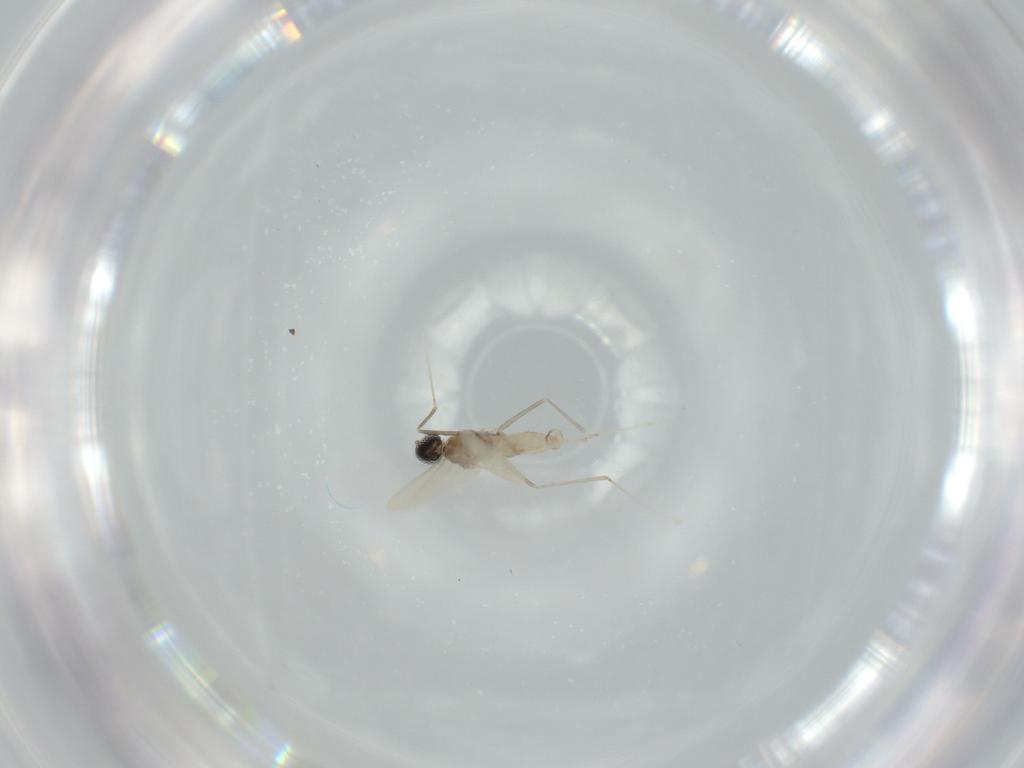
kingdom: Animalia
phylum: Arthropoda
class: Insecta
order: Diptera
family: Cecidomyiidae
